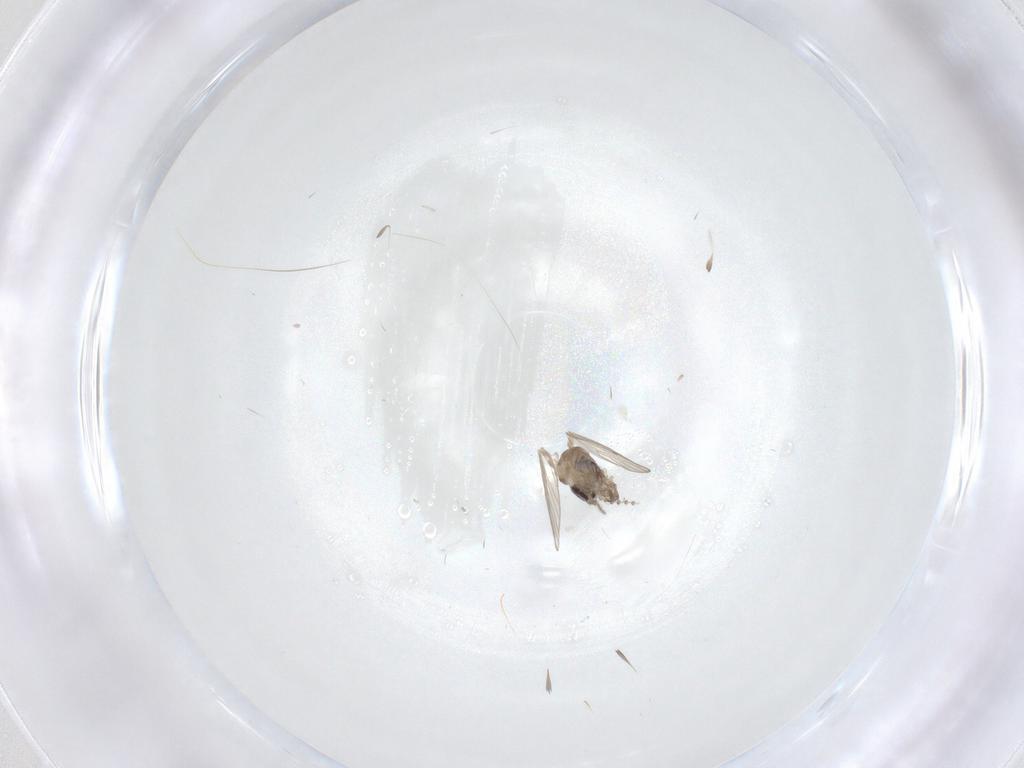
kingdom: Animalia
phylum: Arthropoda
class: Insecta
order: Diptera
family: Psychodidae
